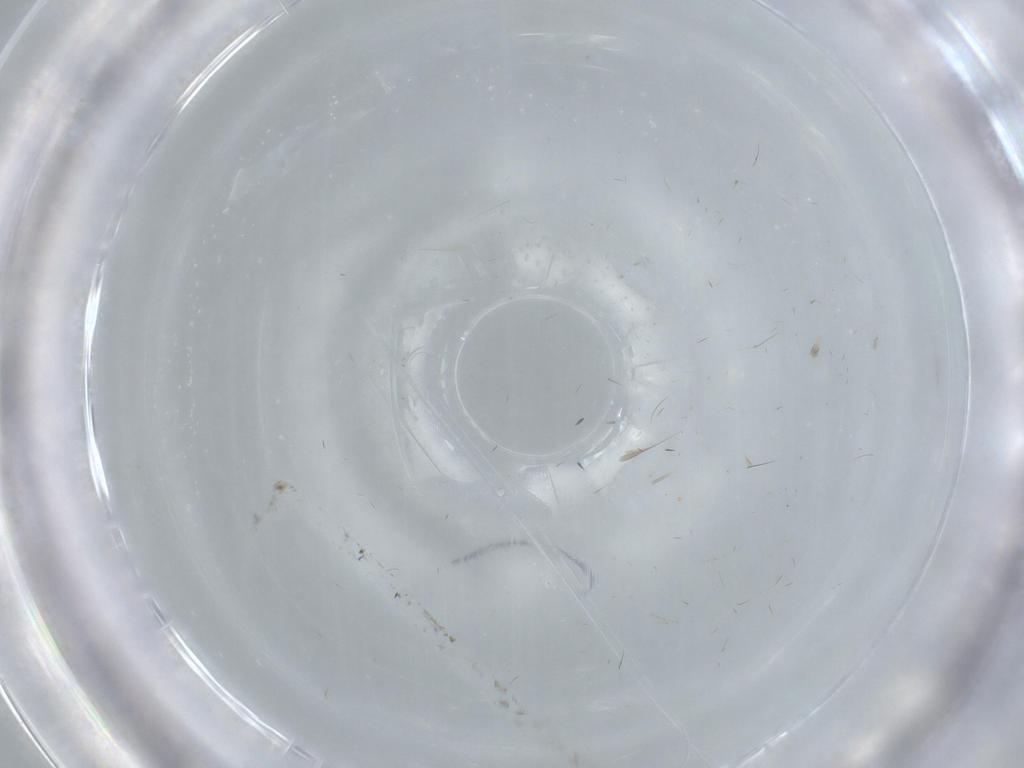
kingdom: Animalia
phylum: Arthropoda
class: Insecta
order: Diptera
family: Cecidomyiidae
